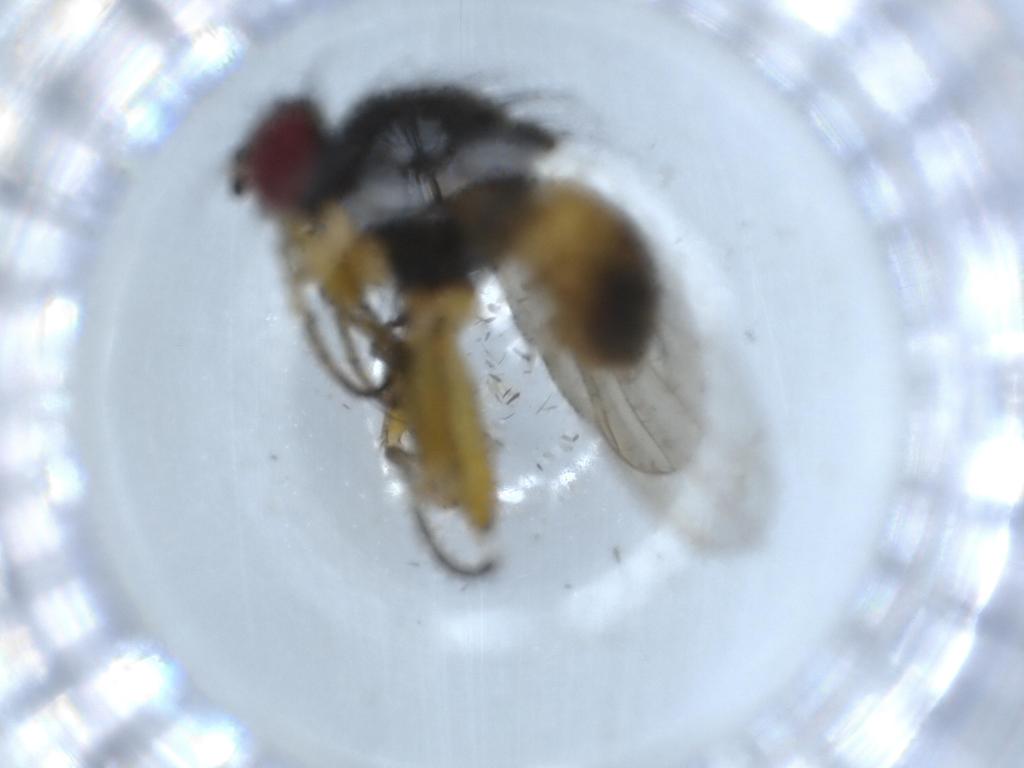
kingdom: Animalia
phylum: Arthropoda
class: Insecta
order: Diptera
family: Muscidae
